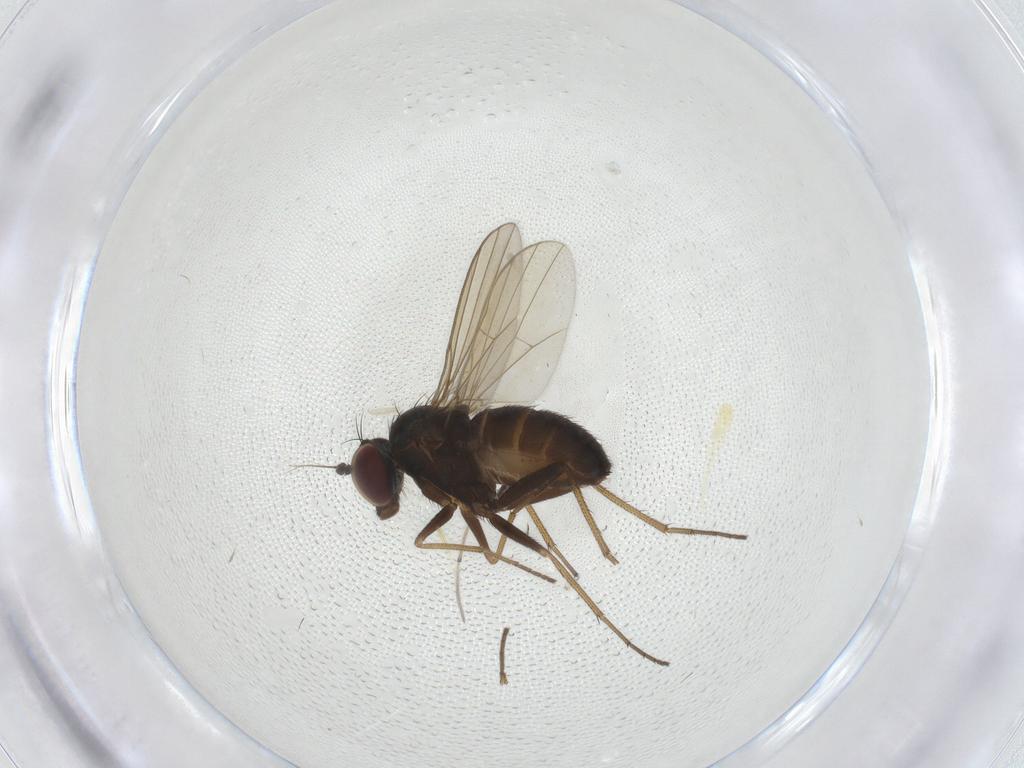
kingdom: Animalia
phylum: Arthropoda
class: Insecta
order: Diptera
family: Dolichopodidae
